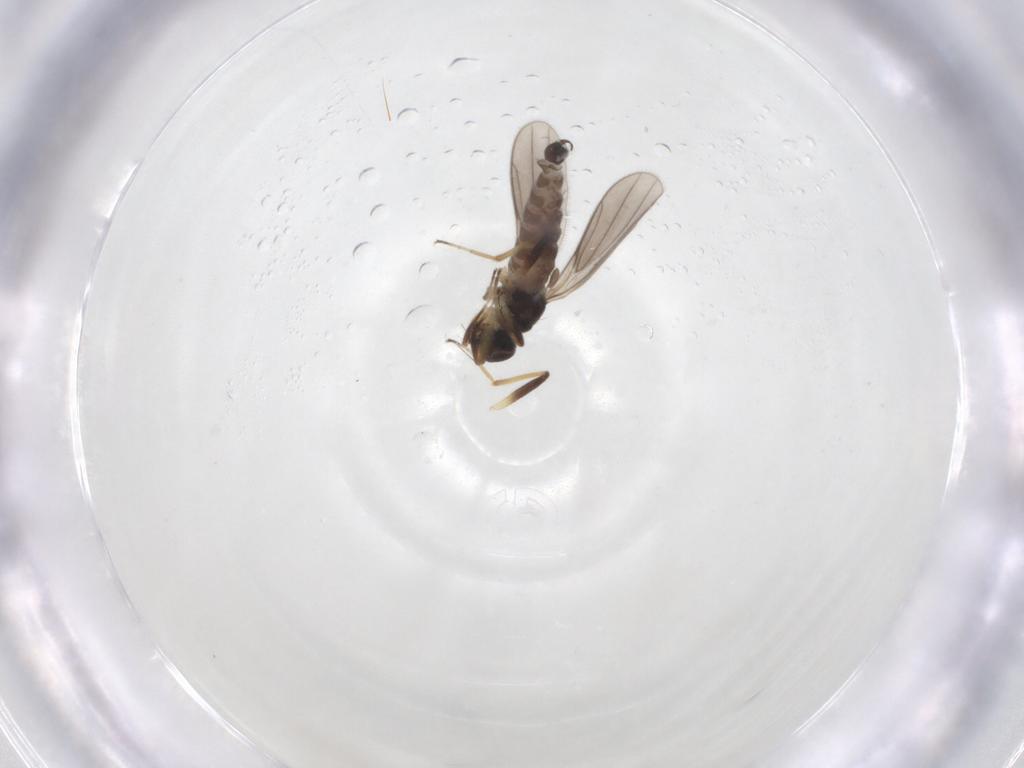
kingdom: Animalia
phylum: Arthropoda
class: Insecta
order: Diptera
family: Hybotidae
